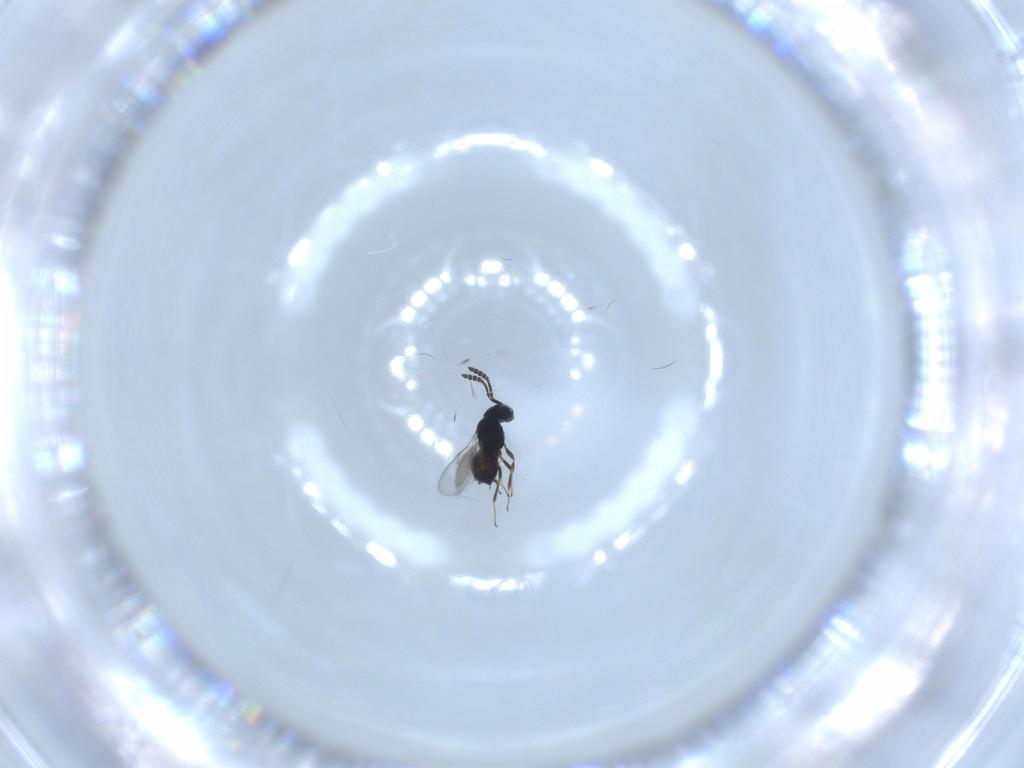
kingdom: Animalia
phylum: Arthropoda
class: Insecta
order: Hymenoptera
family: Scelionidae
